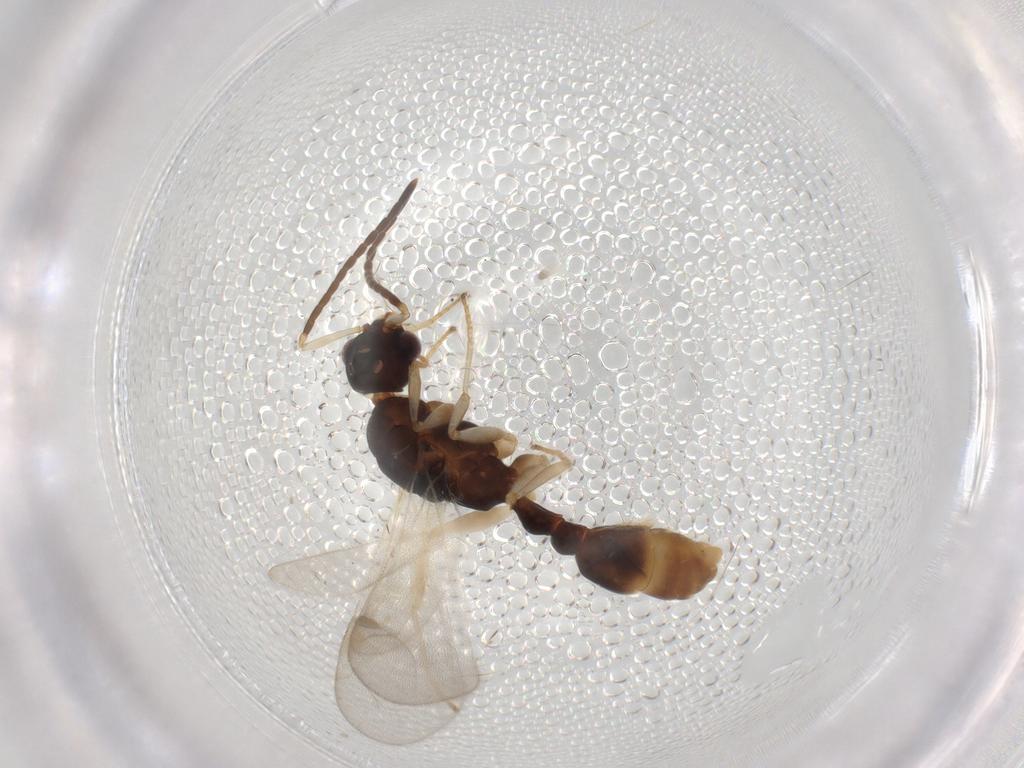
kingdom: Animalia
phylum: Arthropoda
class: Insecta
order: Hymenoptera
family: Formicidae
